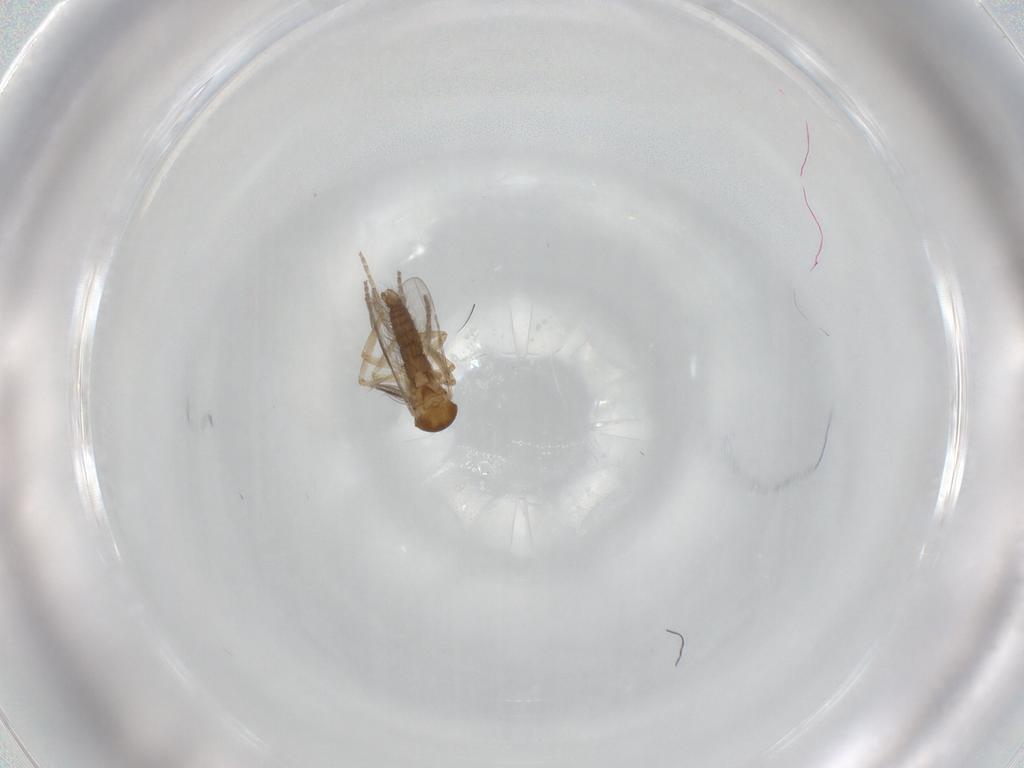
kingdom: Animalia
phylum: Arthropoda
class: Insecta
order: Diptera
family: Ceratopogonidae
